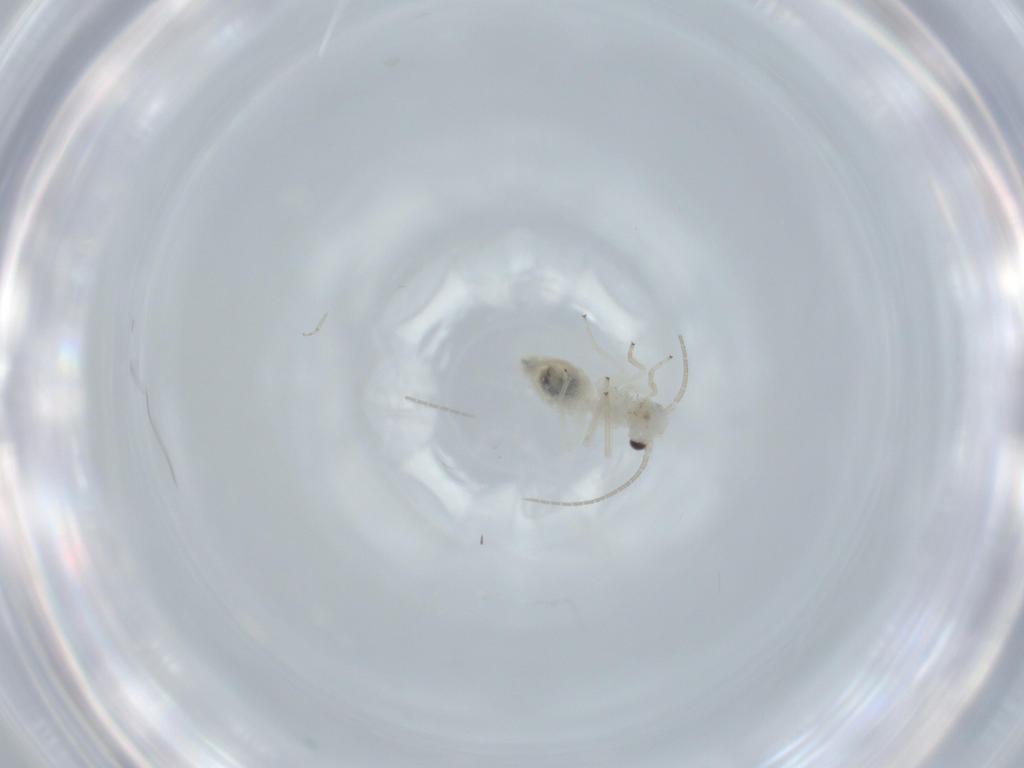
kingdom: Animalia
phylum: Arthropoda
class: Insecta
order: Psocodea
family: Caeciliusidae
